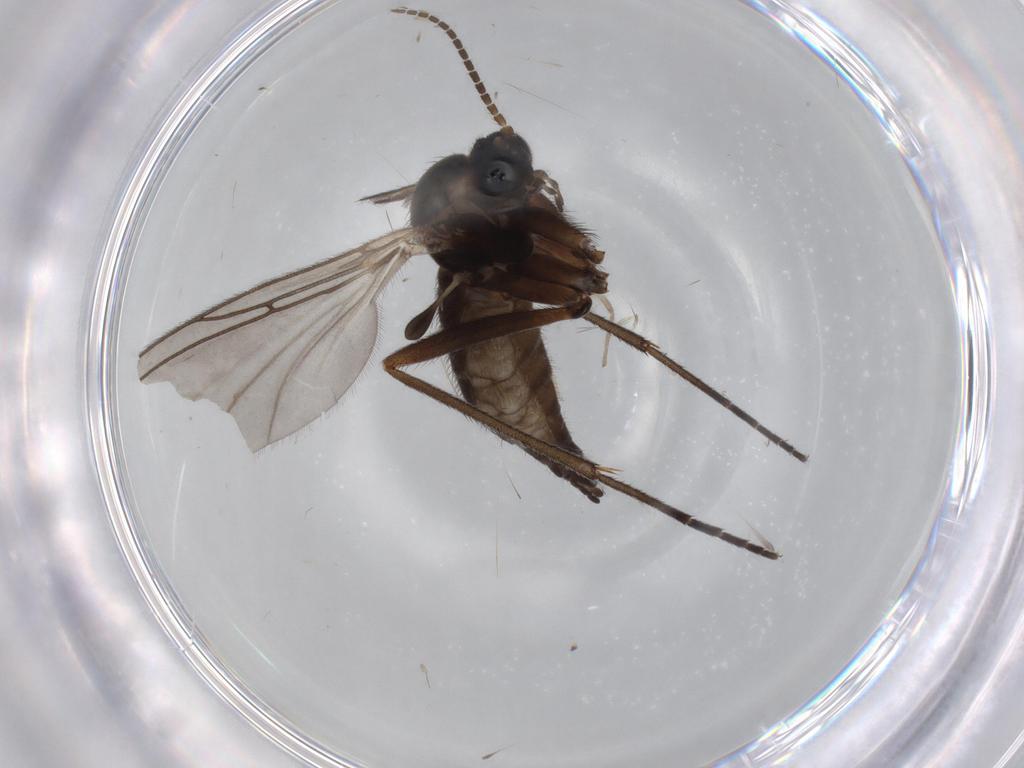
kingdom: Animalia
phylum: Arthropoda
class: Insecta
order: Diptera
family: Sciaridae
